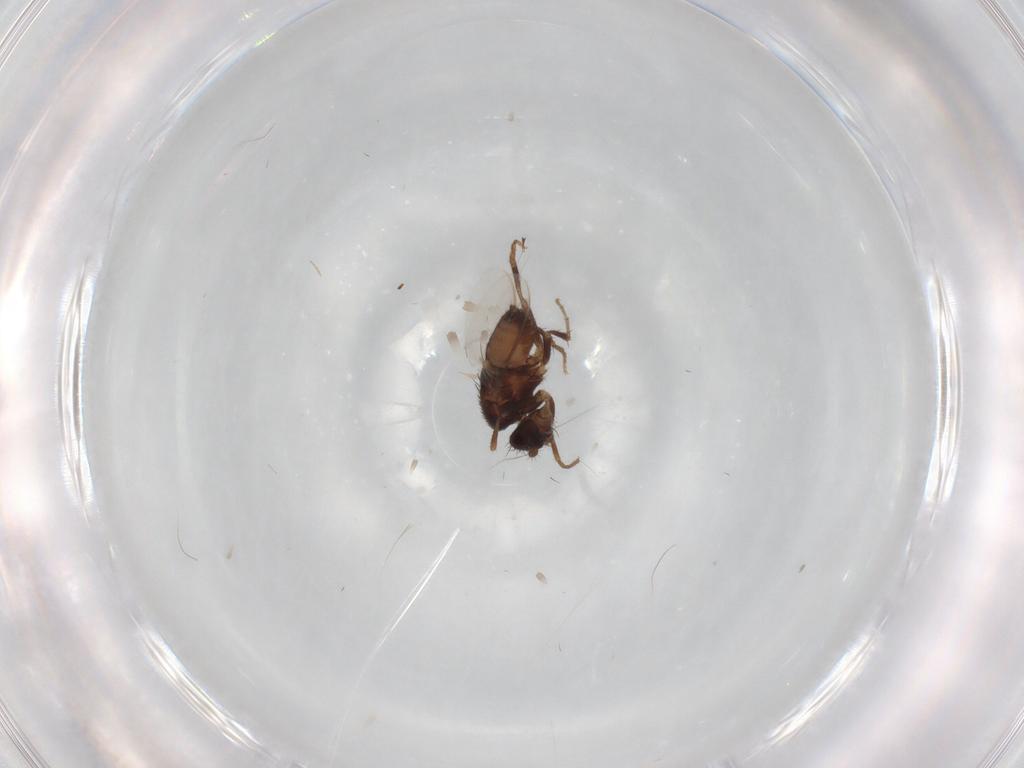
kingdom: Animalia
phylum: Arthropoda
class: Insecta
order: Diptera
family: Sphaeroceridae
